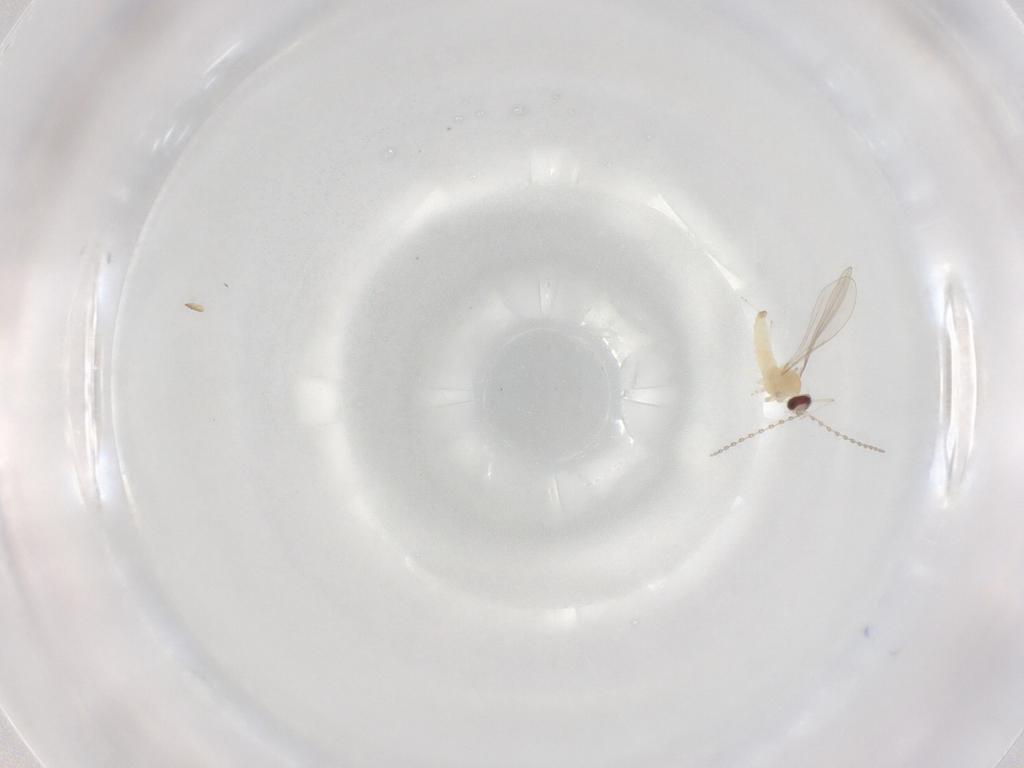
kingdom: Animalia
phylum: Arthropoda
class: Insecta
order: Diptera
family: Cecidomyiidae
